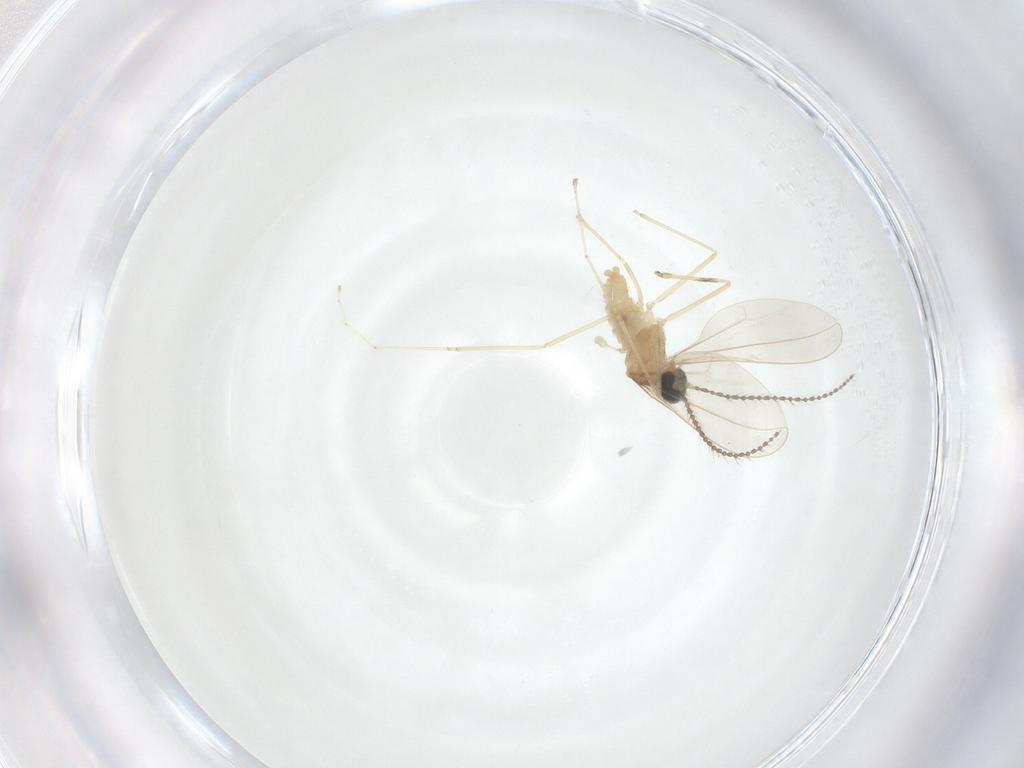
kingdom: Animalia
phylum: Arthropoda
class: Insecta
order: Diptera
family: Cecidomyiidae
